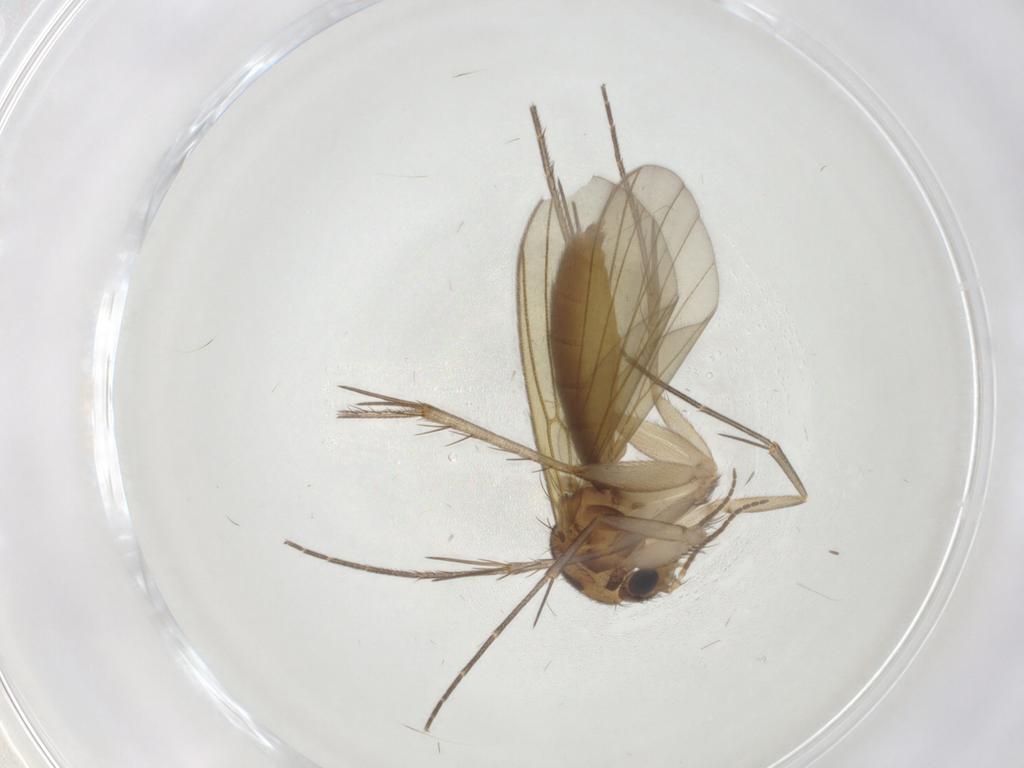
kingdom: Animalia
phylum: Arthropoda
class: Insecta
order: Diptera
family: Mycetophilidae
